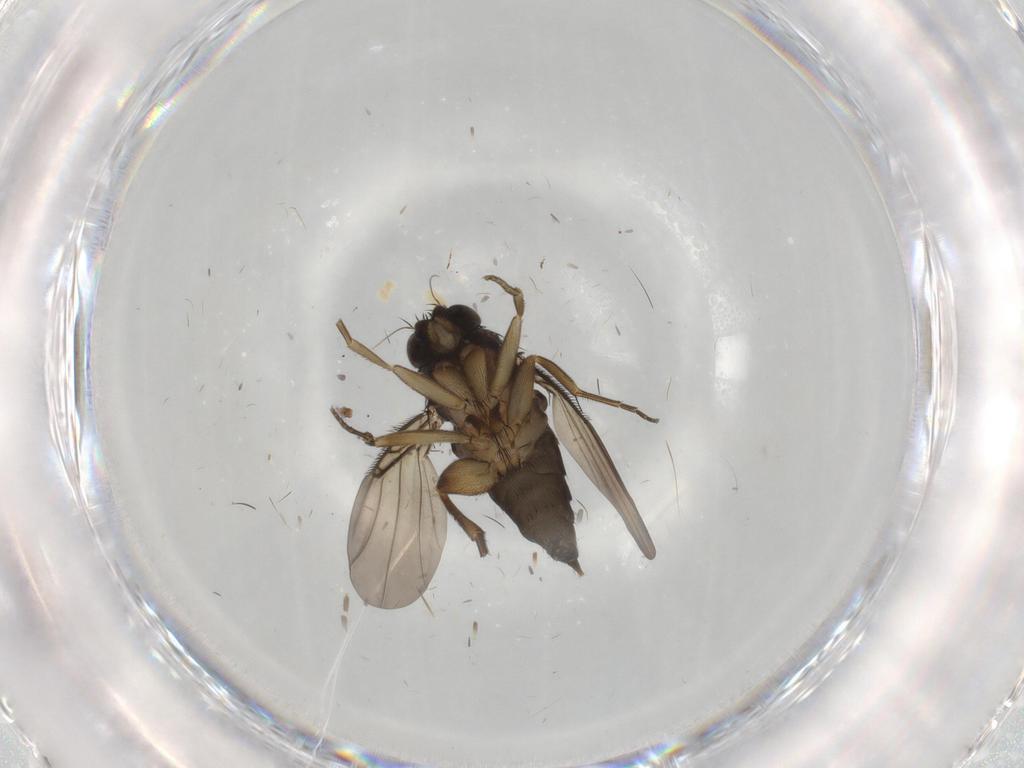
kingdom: Animalia
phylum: Arthropoda
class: Insecta
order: Diptera
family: Phoridae
